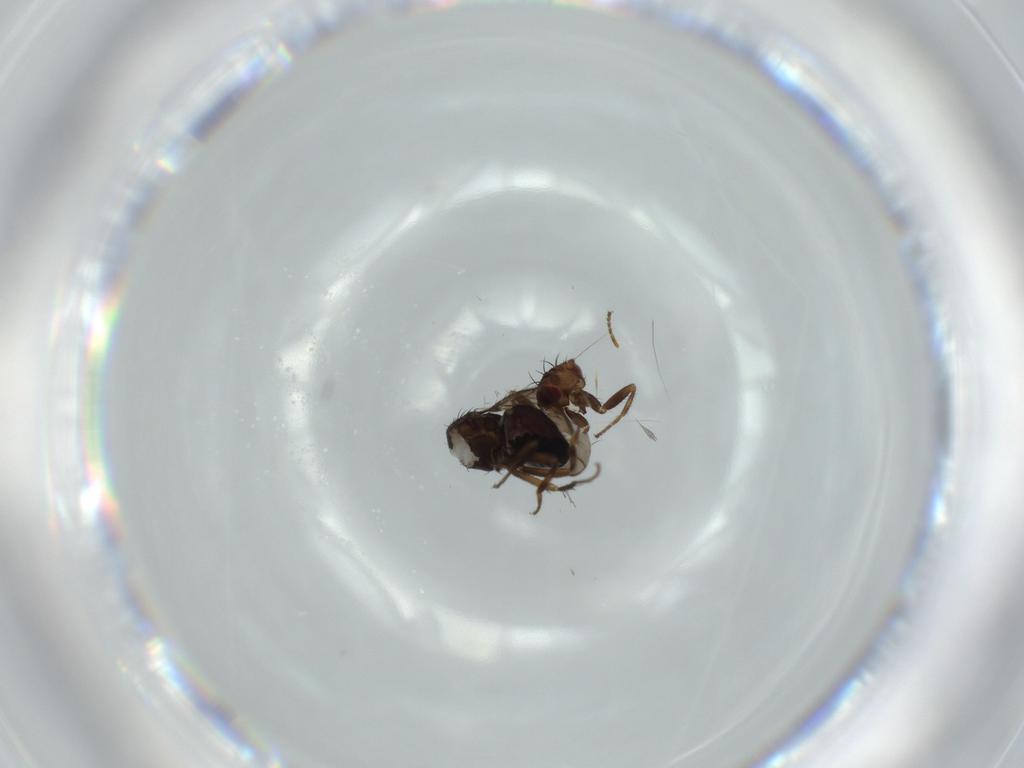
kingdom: Animalia
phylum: Arthropoda
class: Insecta
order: Diptera
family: Sphaeroceridae
